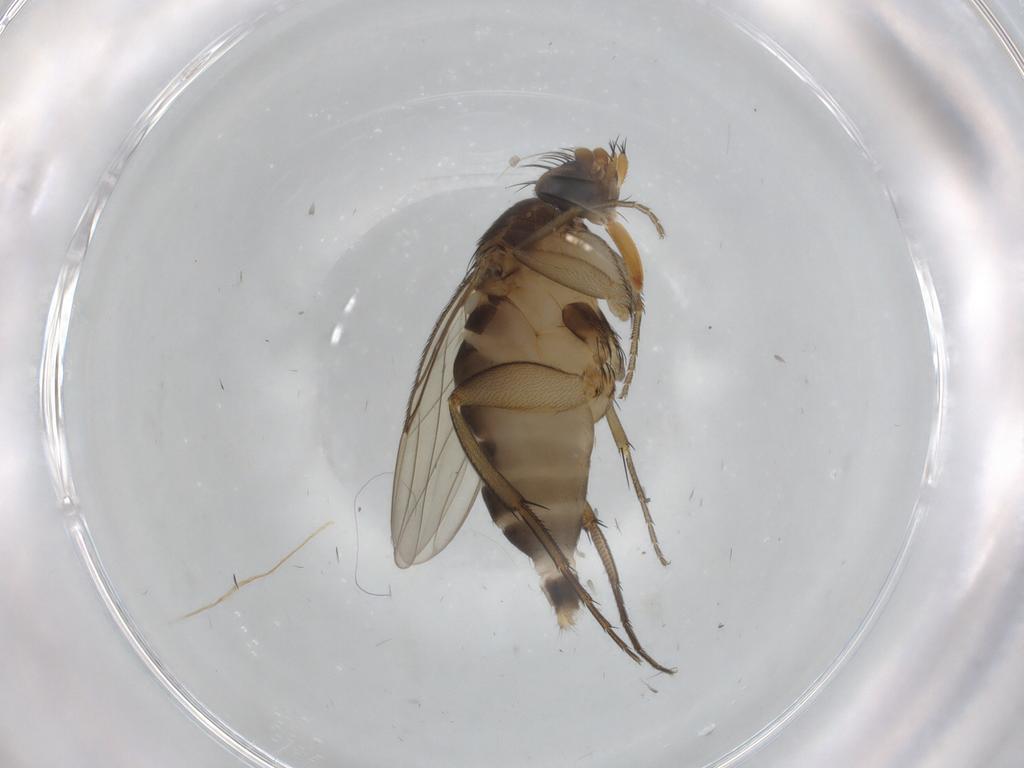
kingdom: Animalia
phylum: Arthropoda
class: Insecta
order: Diptera
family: Phoridae
